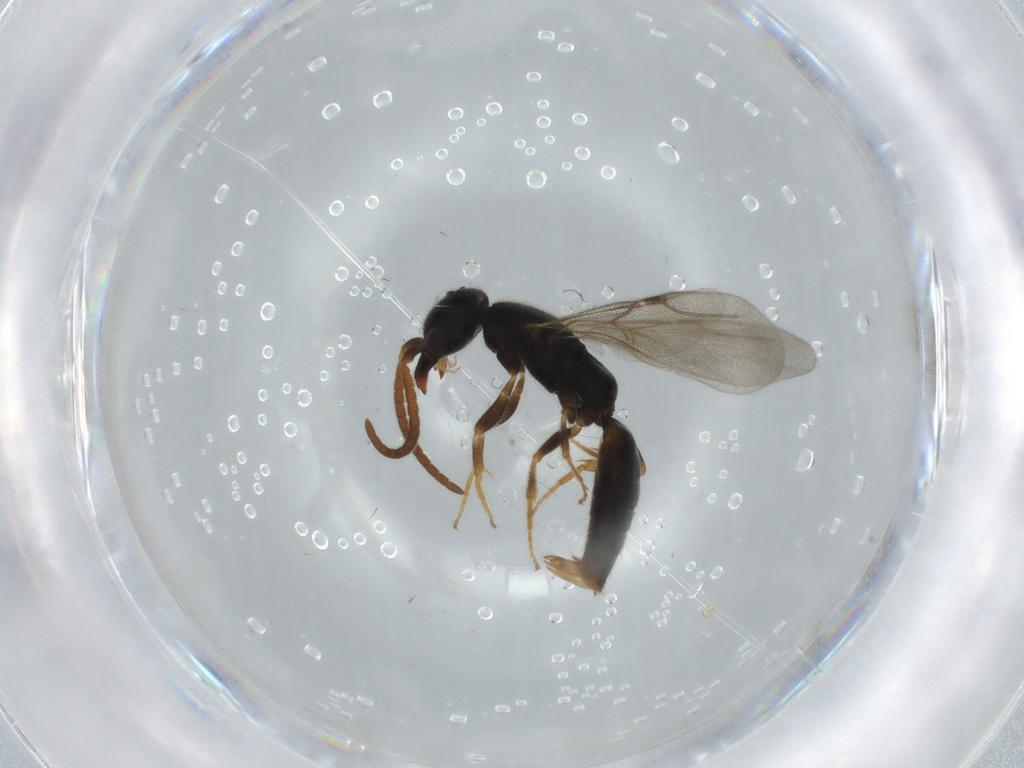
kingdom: Animalia
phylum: Arthropoda
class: Insecta
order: Hymenoptera
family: Bethylidae
